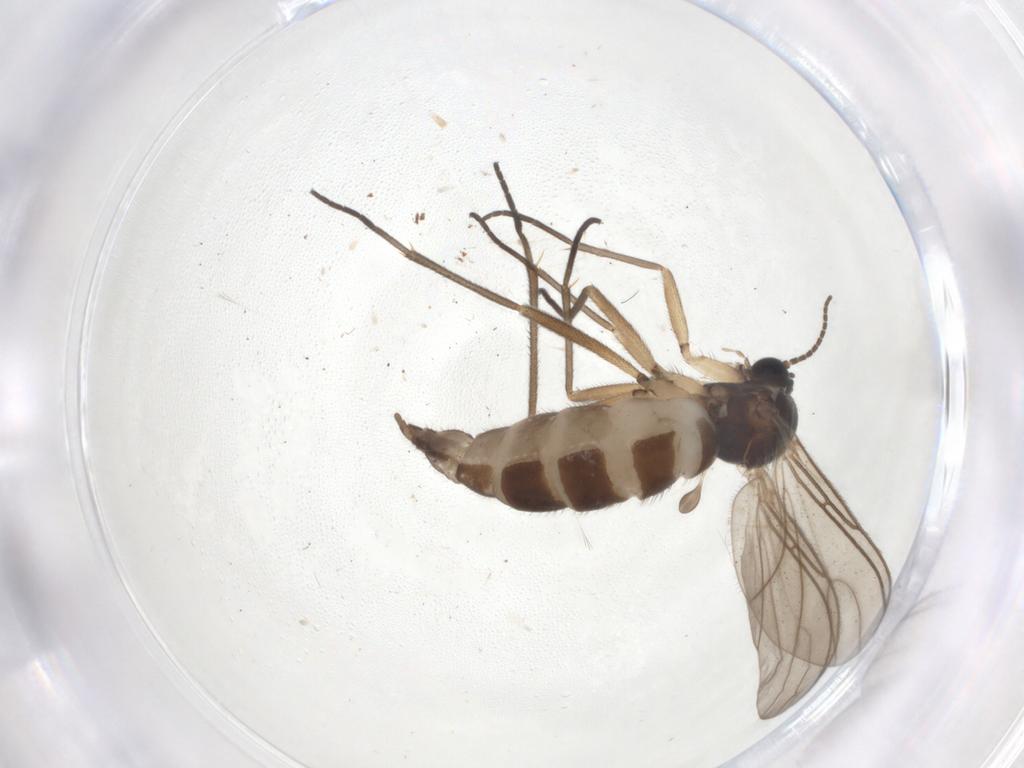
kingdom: Animalia
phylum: Arthropoda
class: Insecta
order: Diptera
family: Sciaridae
